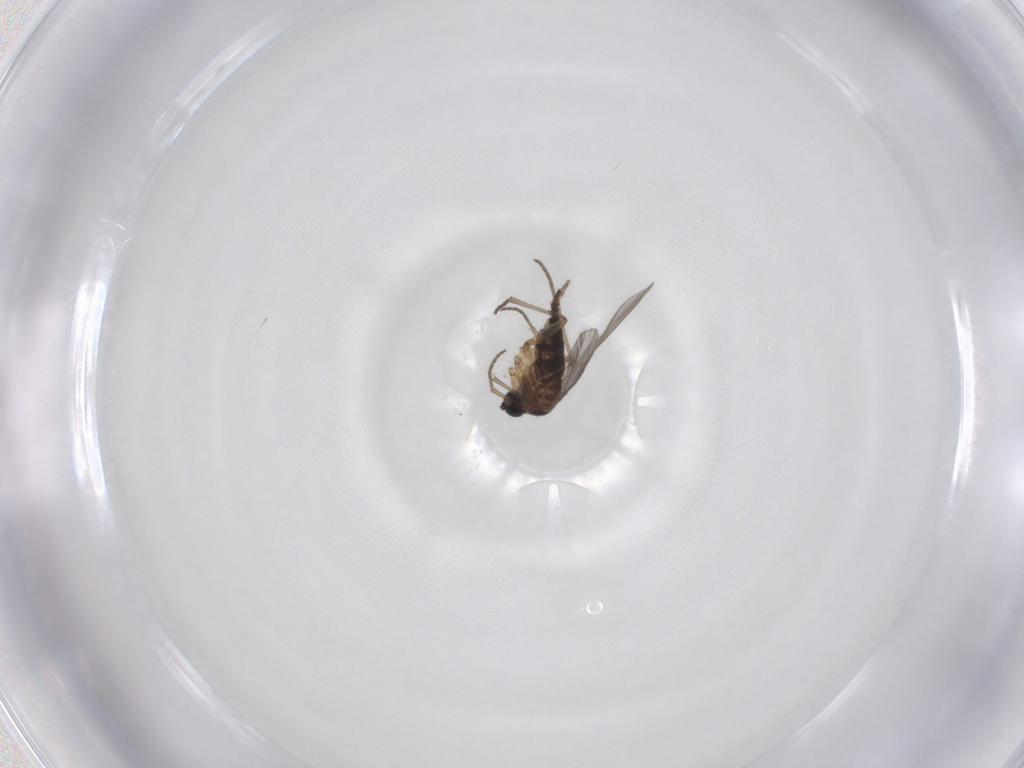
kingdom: Animalia
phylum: Arthropoda
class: Insecta
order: Diptera
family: Sciaridae
